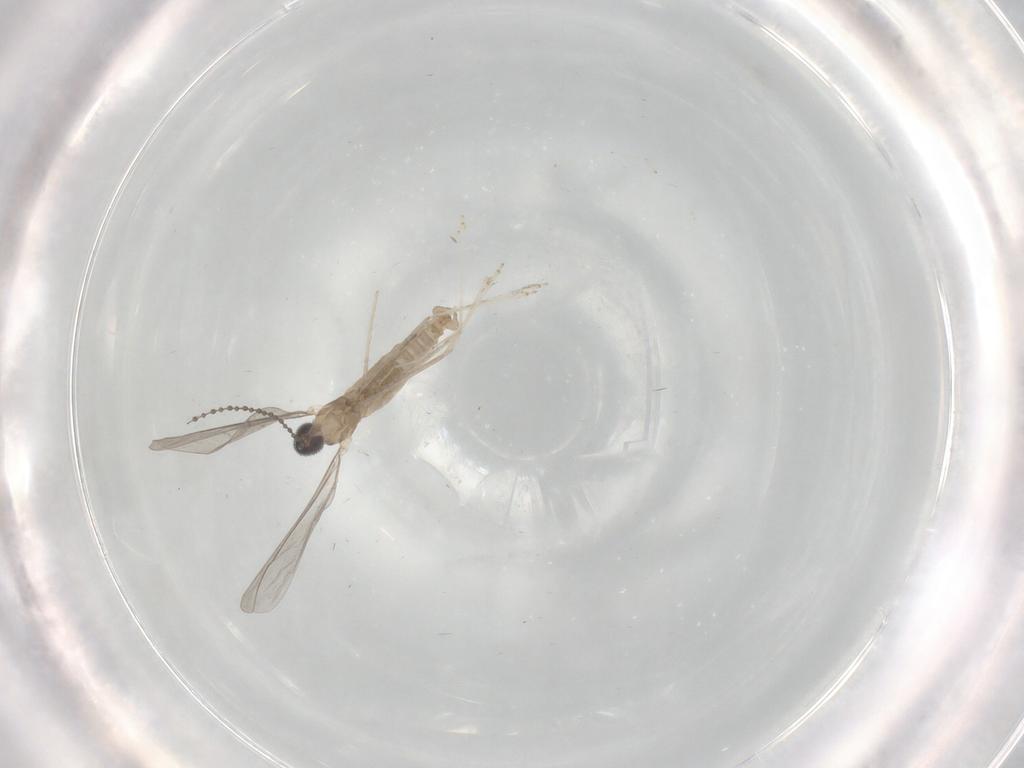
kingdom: Animalia
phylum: Arthropoda
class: Insecta
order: Diptera
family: Cecidomyiidae
